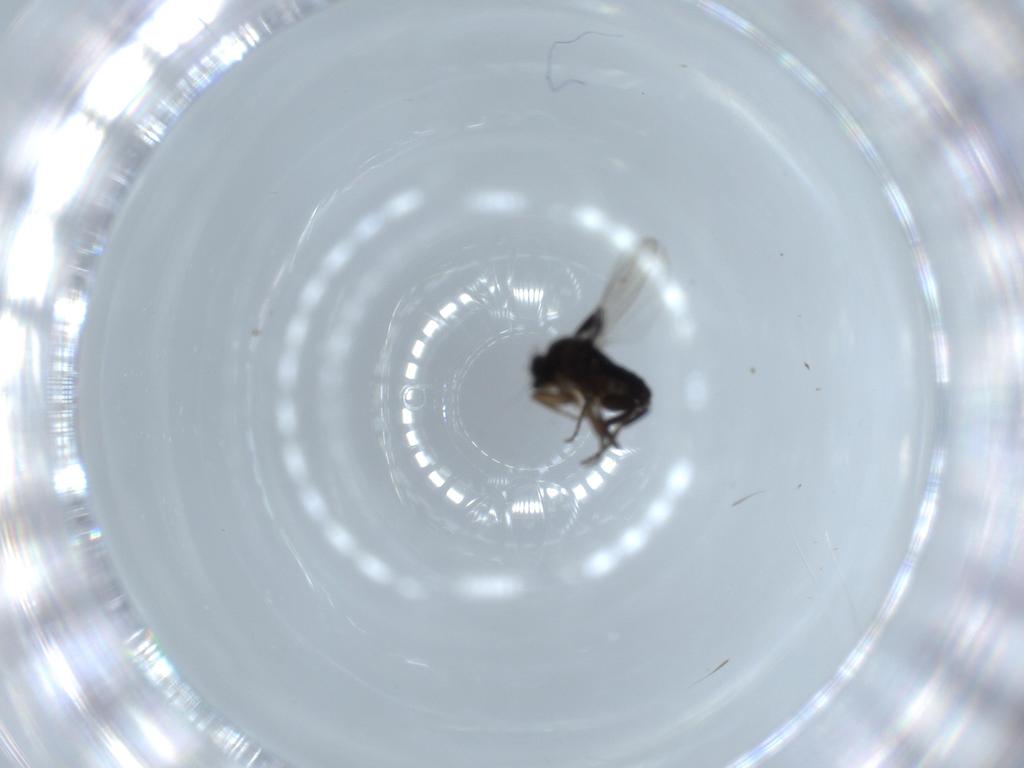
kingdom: Animalia
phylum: Arthropoda
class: Insecta
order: Diptera
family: Phoridae
